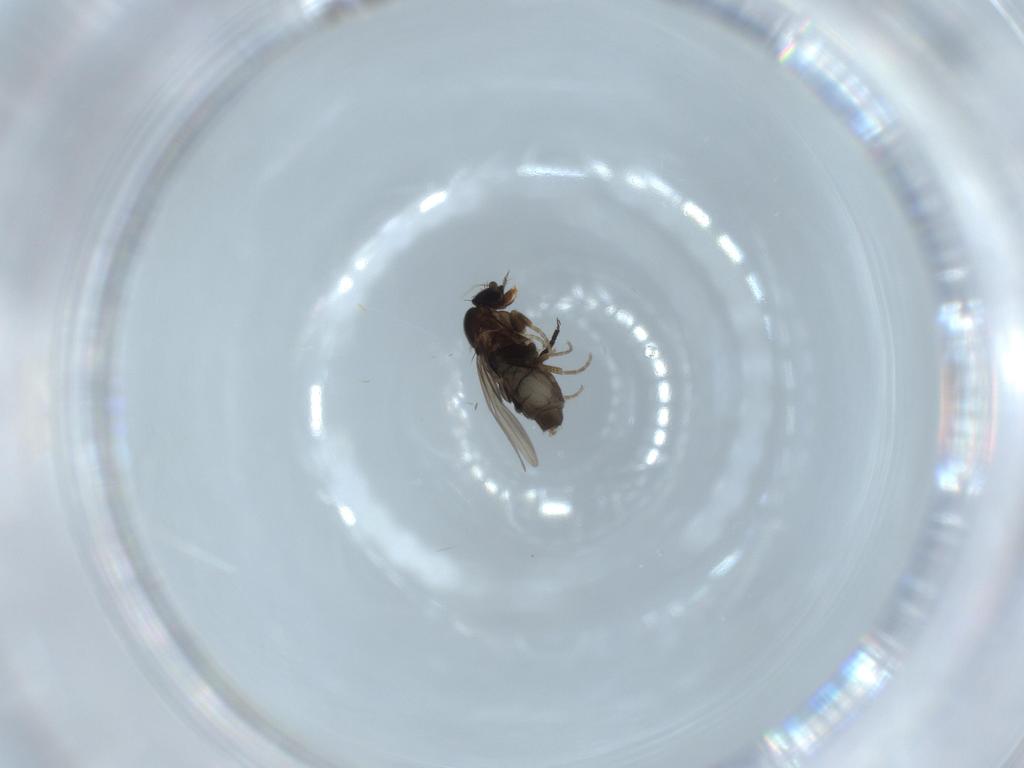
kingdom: Animalia
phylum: Arthropoda
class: Insecta
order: Diptera
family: Phoridae
